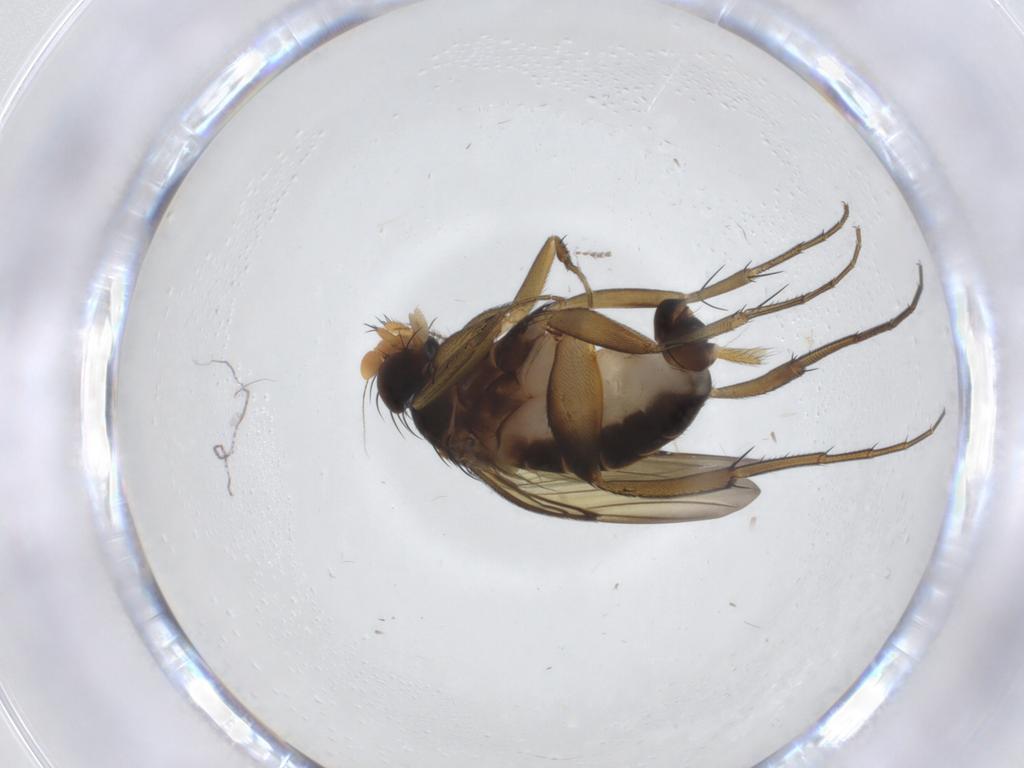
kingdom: Animalia
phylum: Arthropoda
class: Insecta
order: Diptera
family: Phoridae
